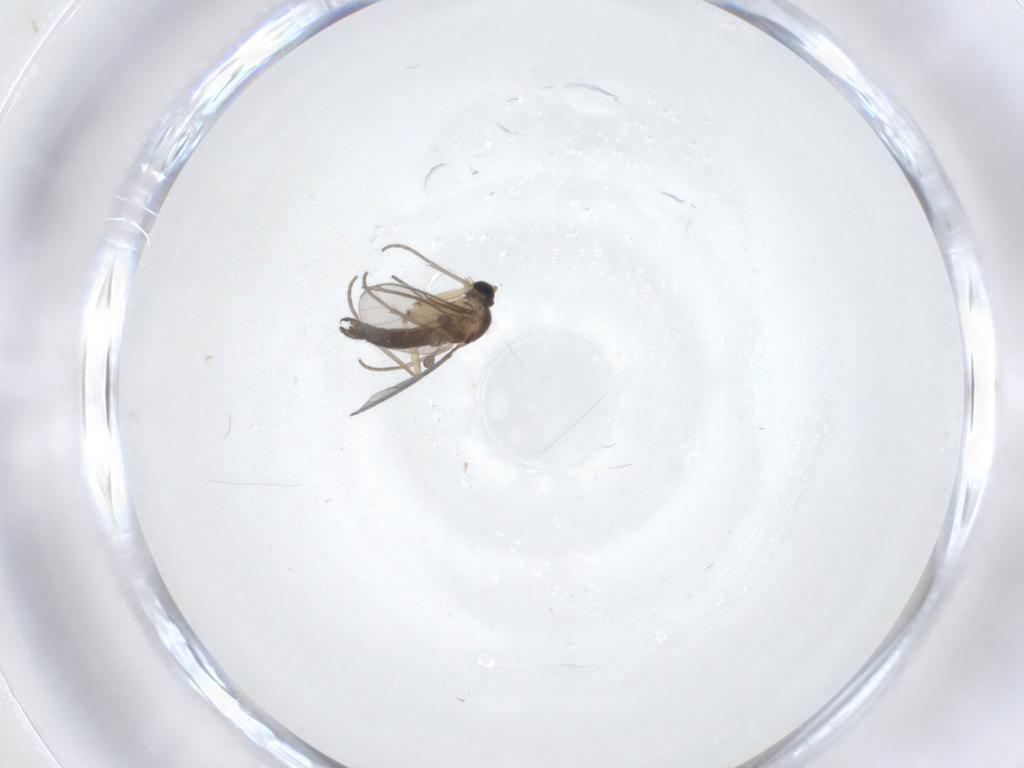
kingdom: Animalia
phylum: Arthropoda
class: Insecta
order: Diptera
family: Sciaridae
